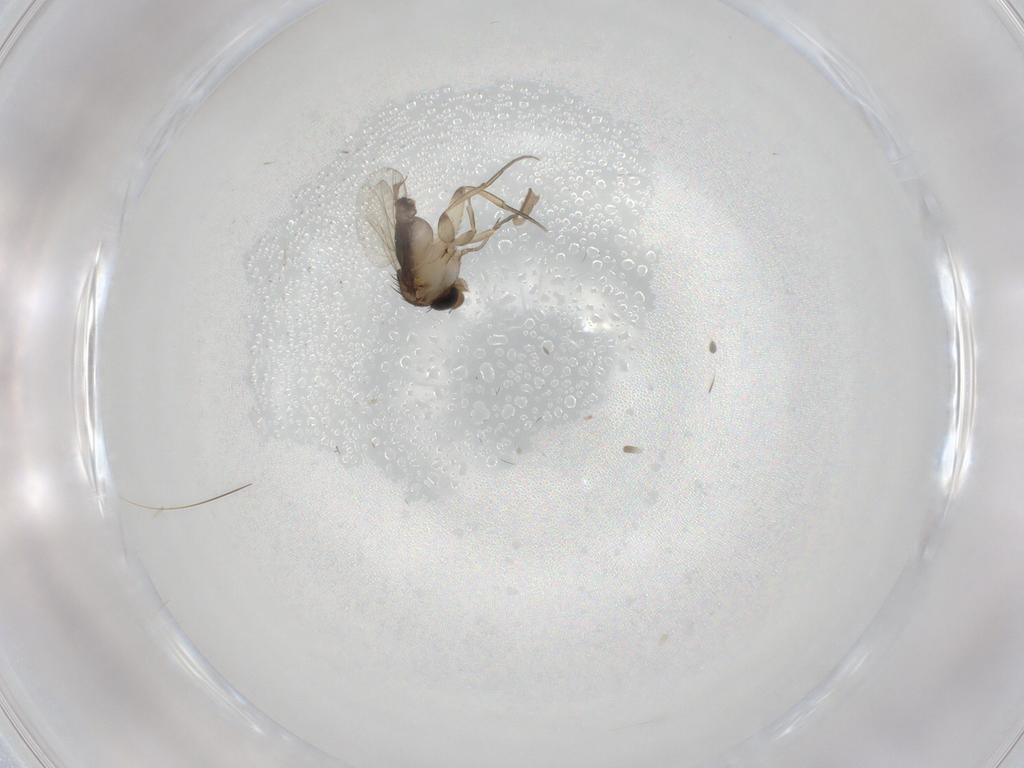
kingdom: Animalia
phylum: Arthropoda
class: Insecta
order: Diptera
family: Phoridae
